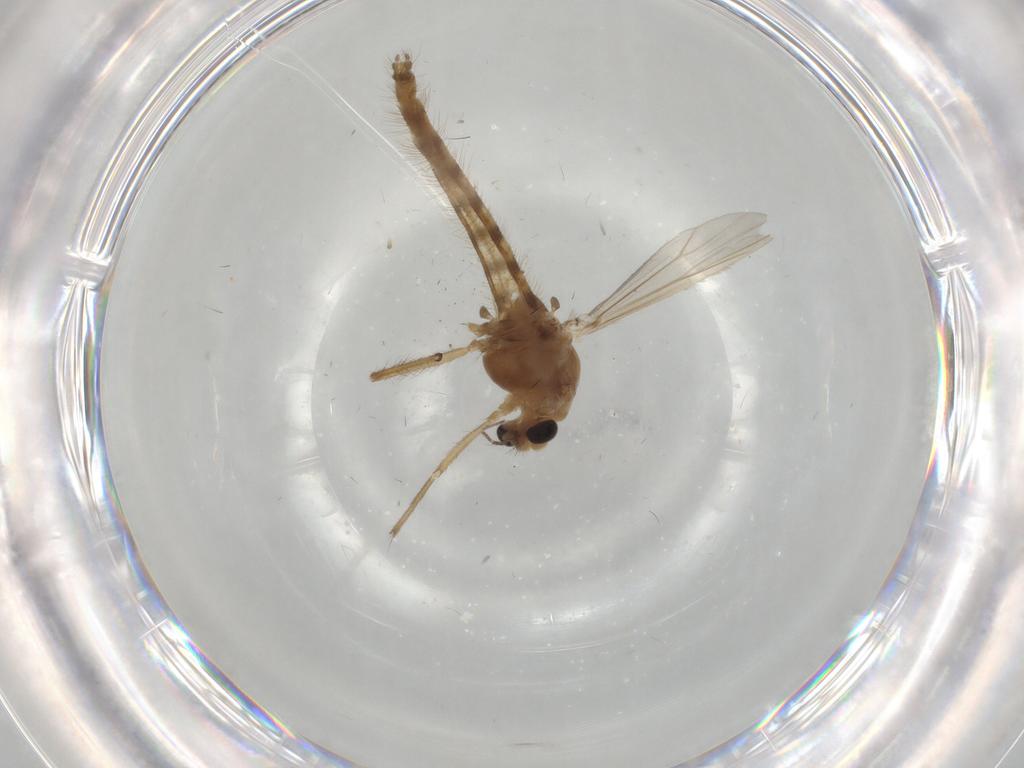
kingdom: Animalia
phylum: Arthropoda
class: Insecta
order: Diptera
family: Chironomidae
